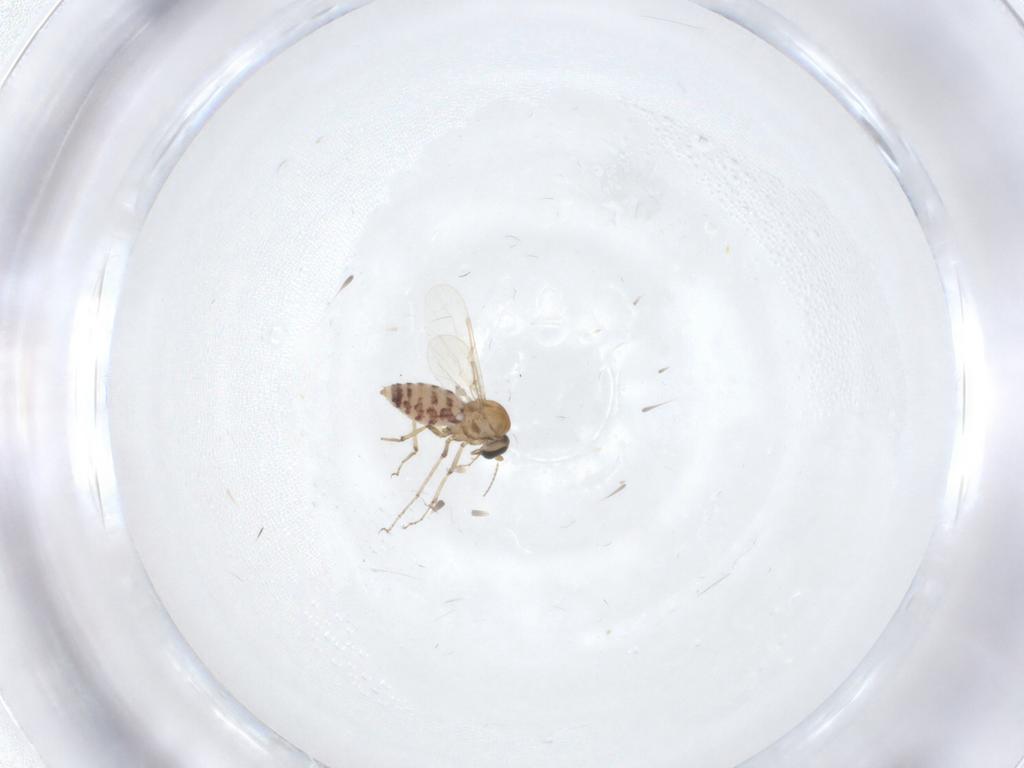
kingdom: Animalia
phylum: Arthropoda
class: Insecta
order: Diptera
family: Ceratopogonidae
